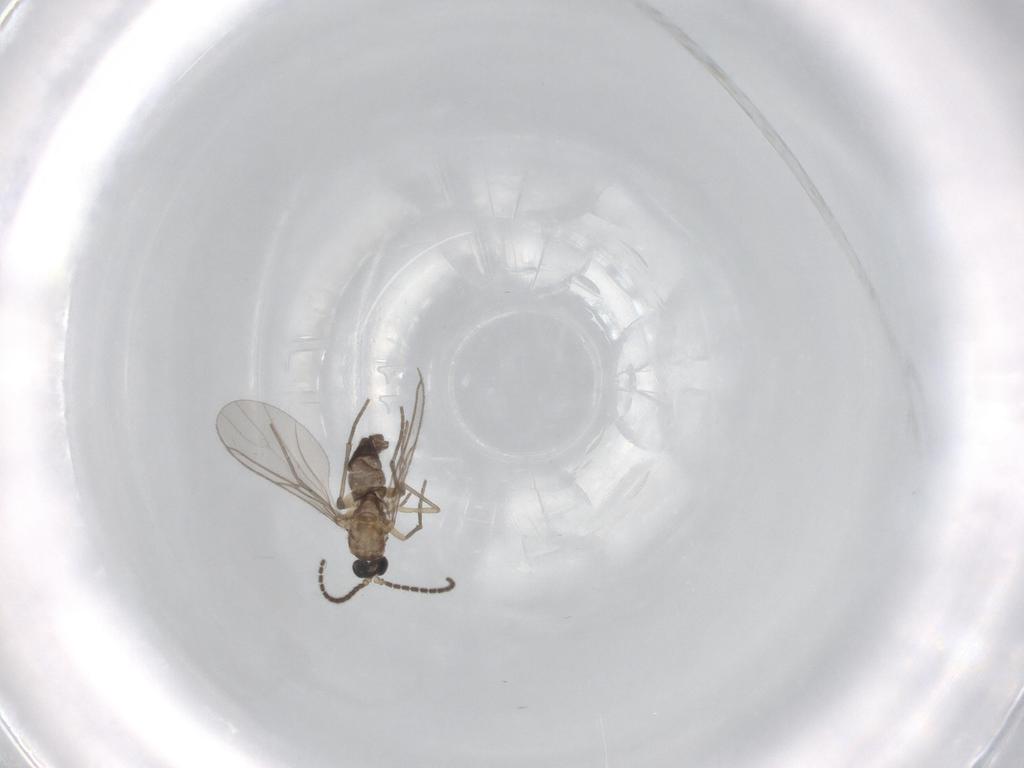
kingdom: Animalia
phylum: Arthropoda
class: Insecta
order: Diptera
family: Sciaridae
